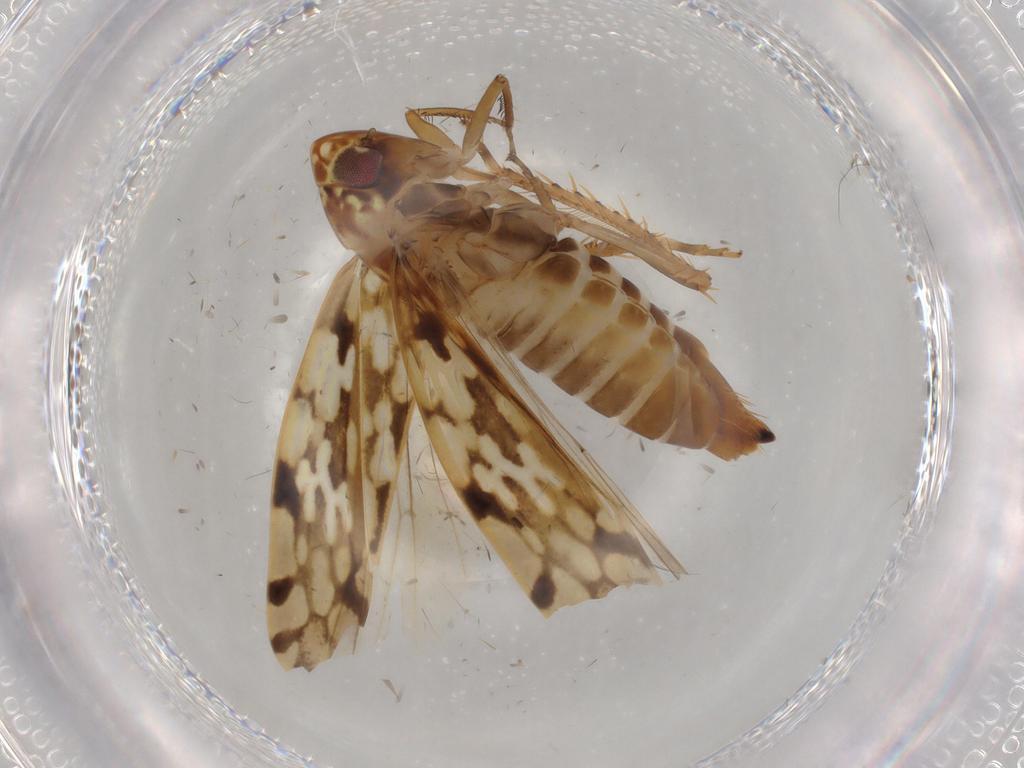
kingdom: Animalia
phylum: Arthropoda
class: Insecta
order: Hemiptera
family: Cicadellidae
